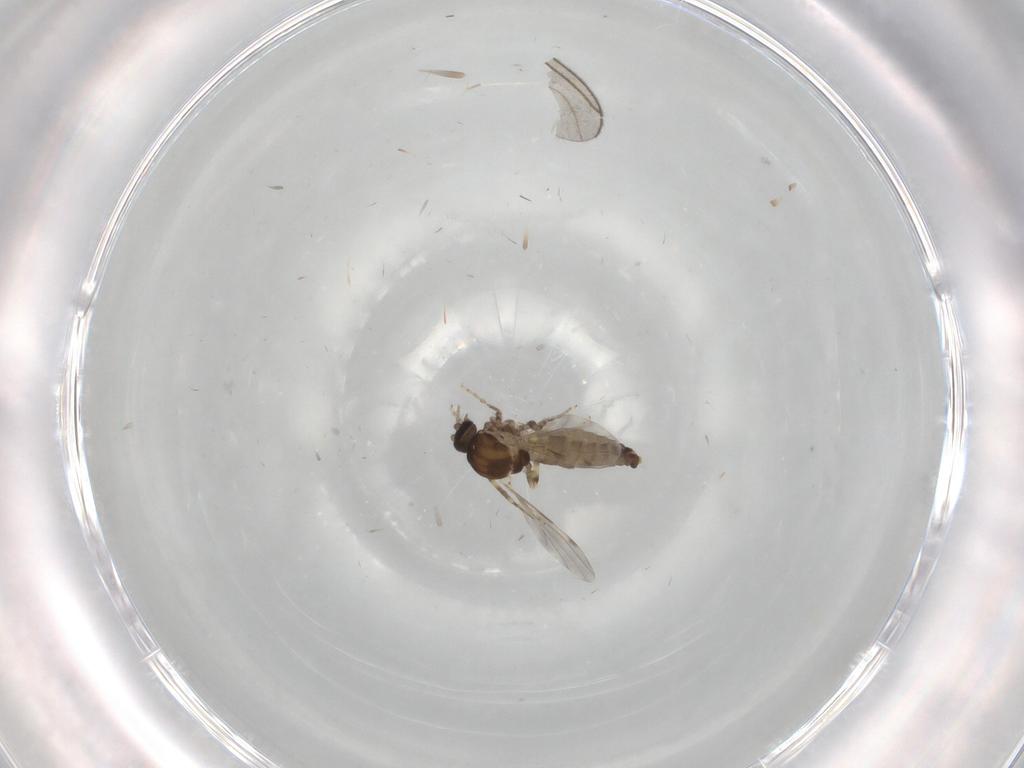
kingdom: Animalia
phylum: Arthropoda
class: Insecta
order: Diptera
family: Ceratopogonidae
